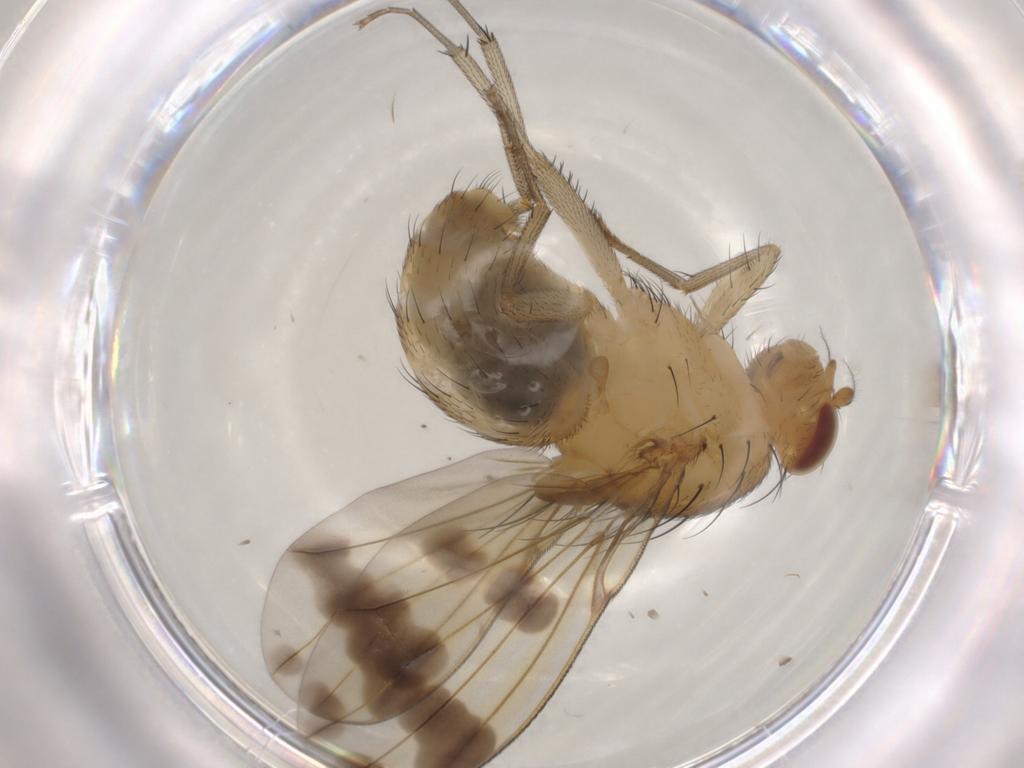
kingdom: Animalia
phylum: Arthropoda
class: Insecta
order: Diptera
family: Lauxaniidae
